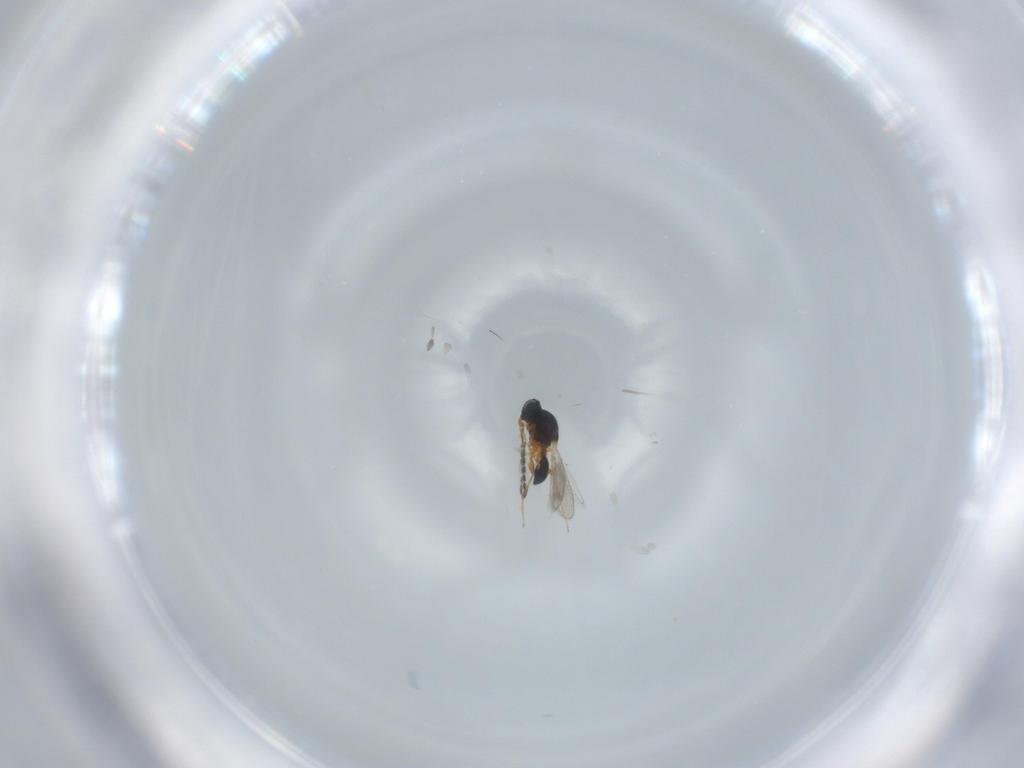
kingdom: Animalia
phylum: Arthropoda
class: Insecta
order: Hymenoptera
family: Platygastridae
